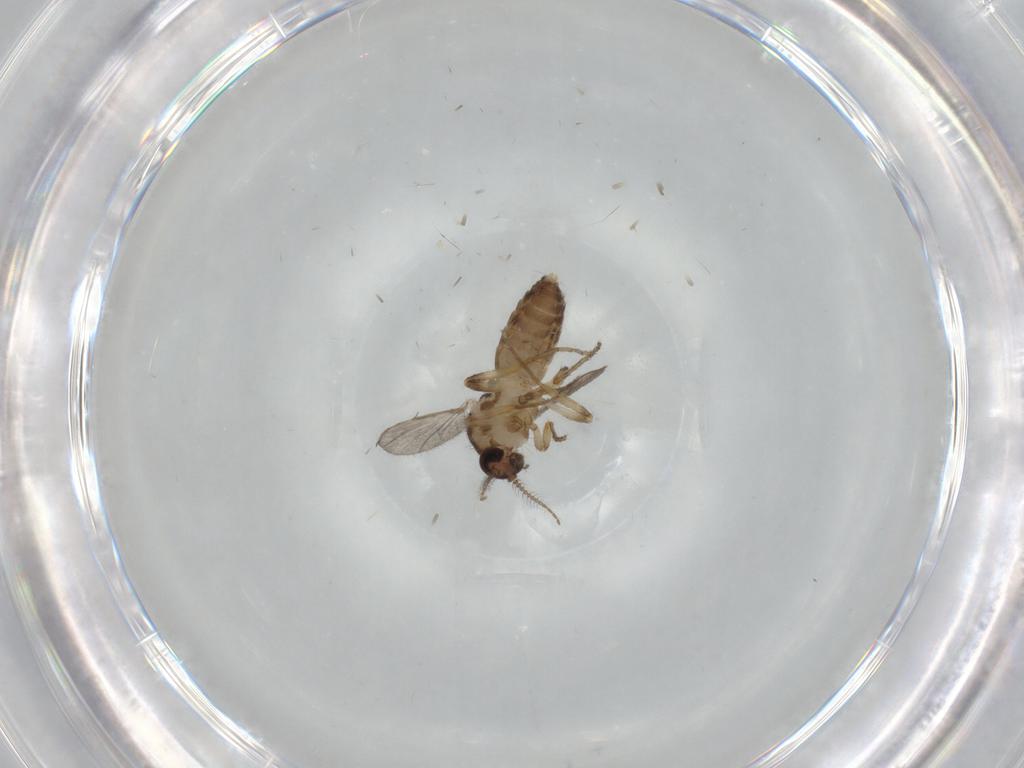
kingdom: Animalia
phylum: Arthropoda
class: Insecta
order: Diptera
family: Ceratopogonidae
